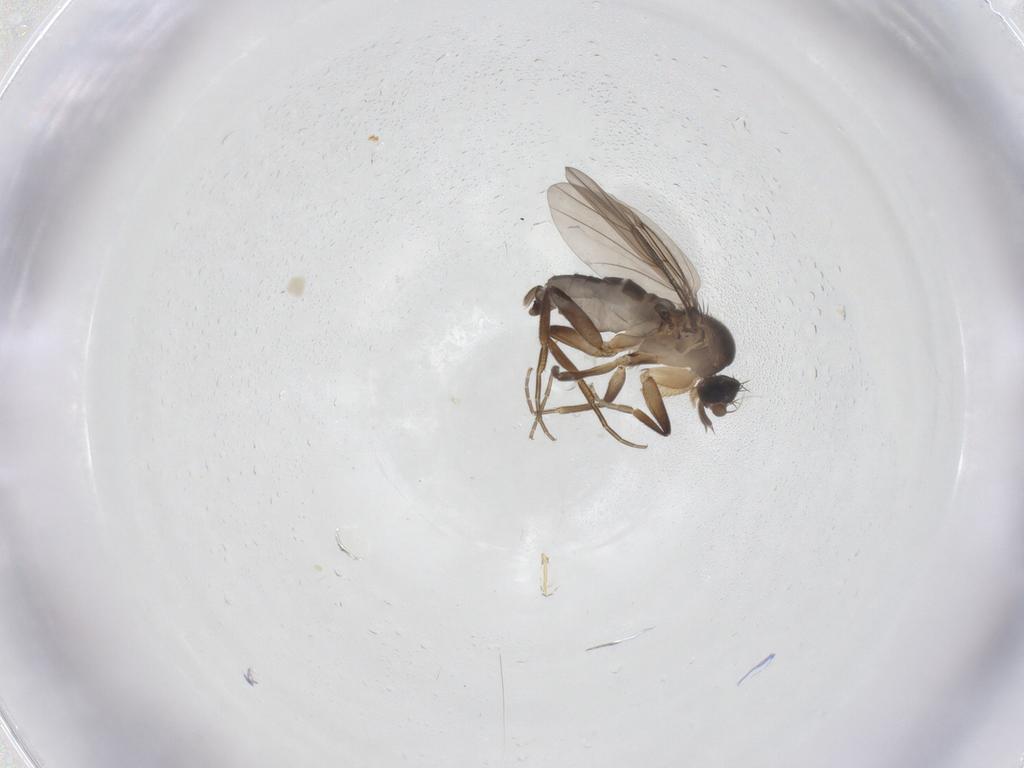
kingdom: Animalia
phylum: Arthropoda
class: Insecta
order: Diptera
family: Phoridae
